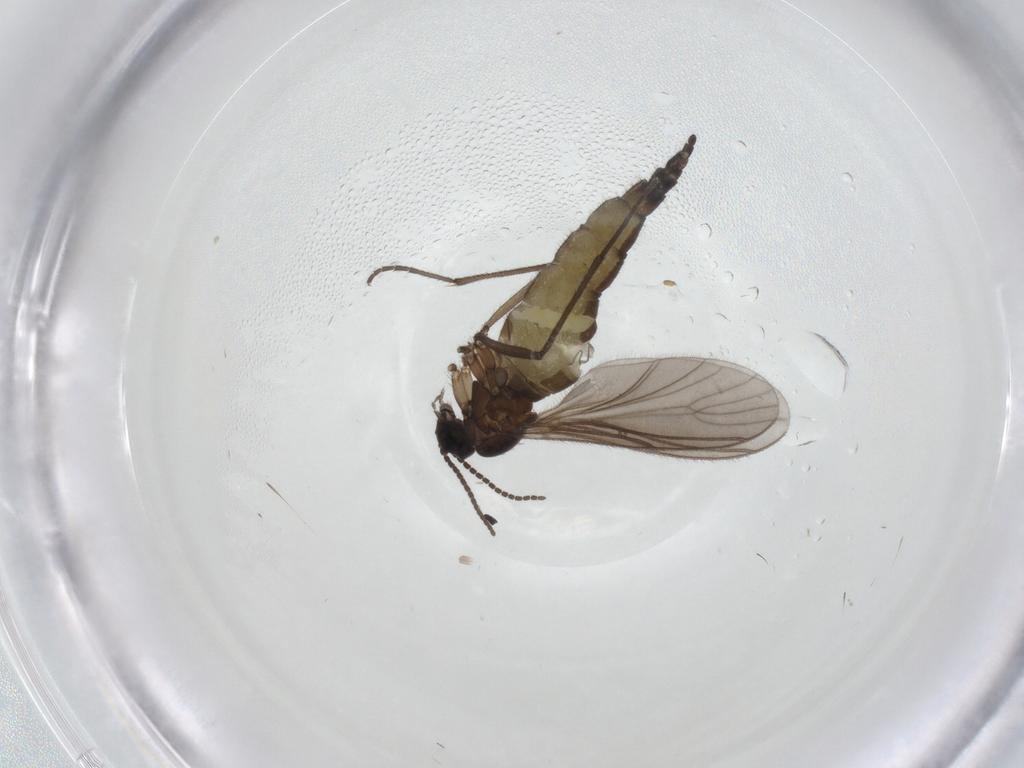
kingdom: Animalia
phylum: Arthropoda
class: Insecta
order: Diptera
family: Sciaridae
